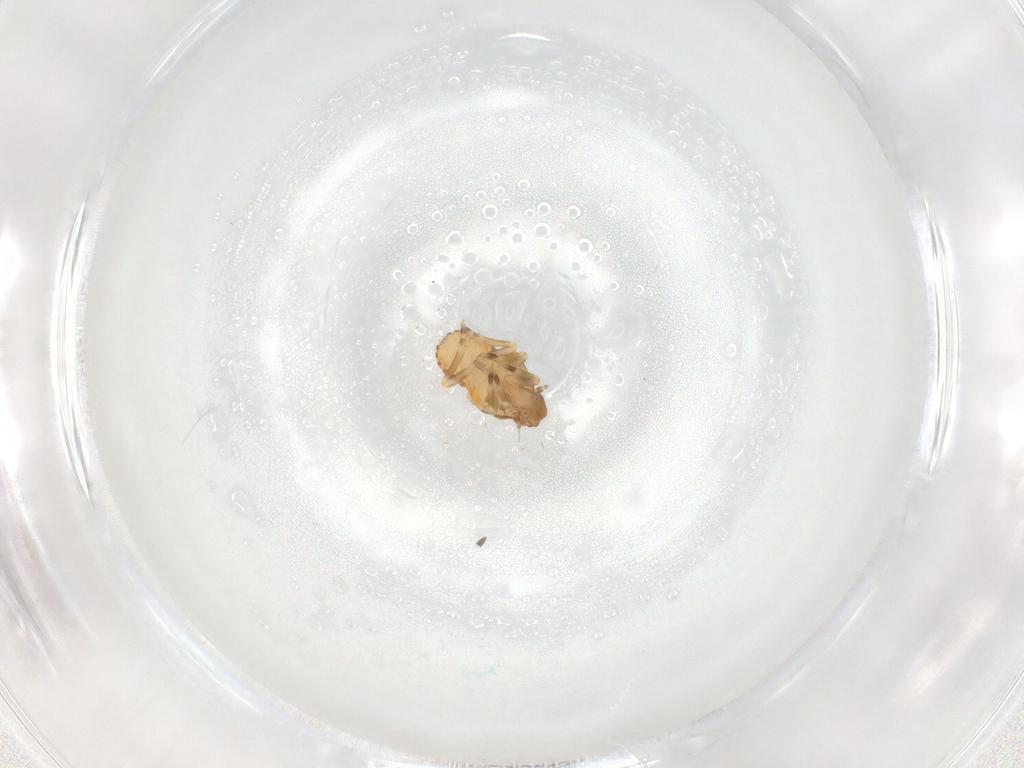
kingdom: Animalia
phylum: Arthropoda
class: Insecta
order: Hemiptera
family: Flatidae
